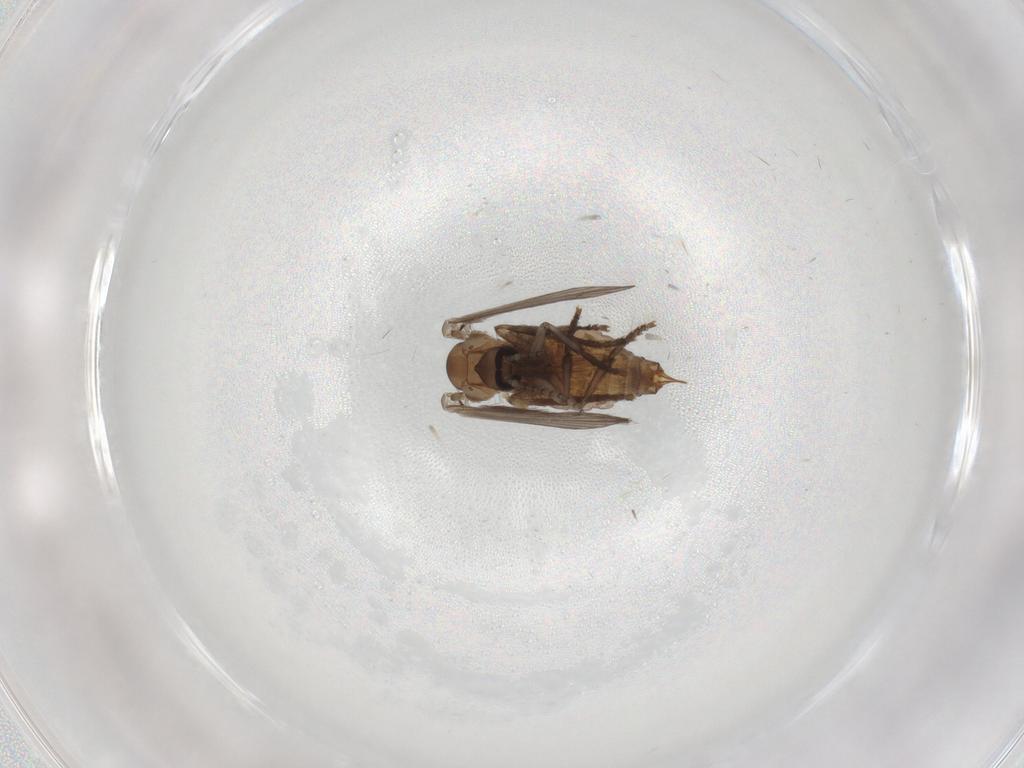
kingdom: Animalia
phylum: Arthropoda
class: Insecta
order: Diptera
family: Psychodidae
